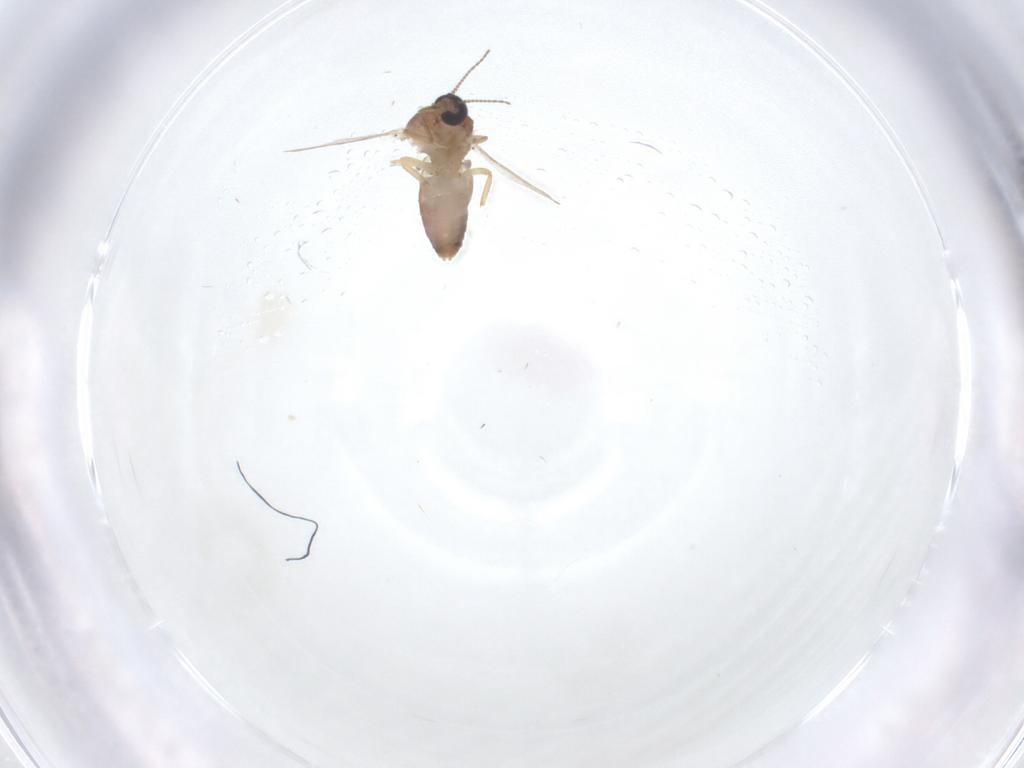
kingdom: Animalia
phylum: Arthropoda
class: Insecta
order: Diptera
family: Ceratopogonidae
